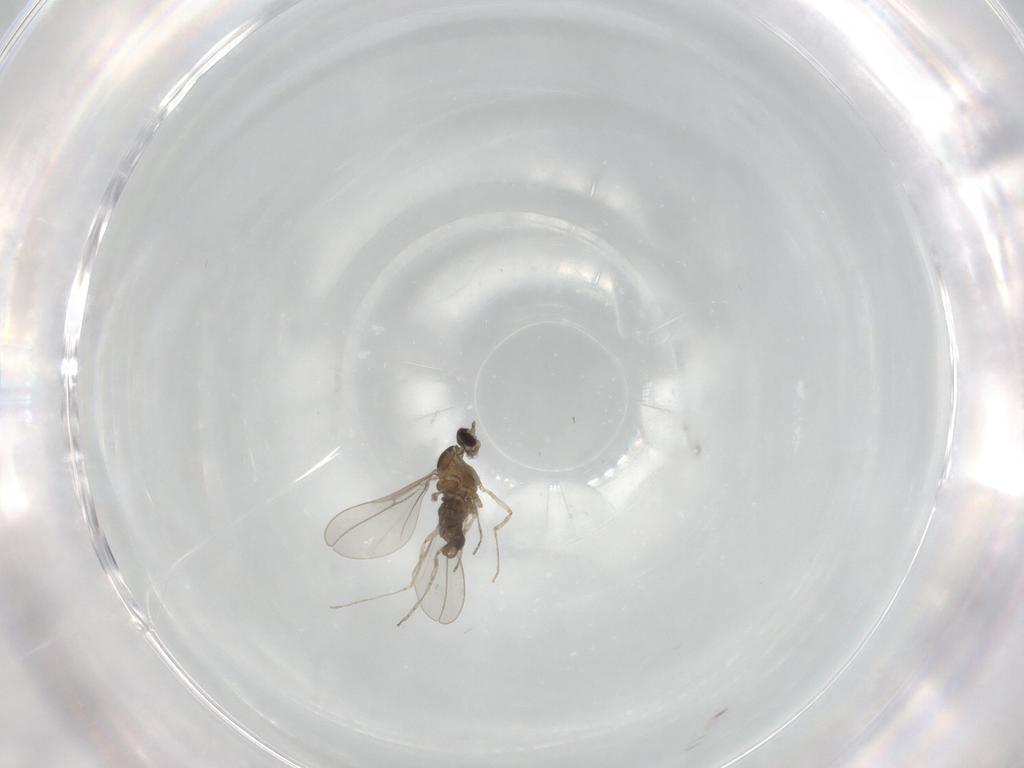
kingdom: Animalia
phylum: Arthropoda
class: Insecta
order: Diptera
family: Cecidomyiidae
